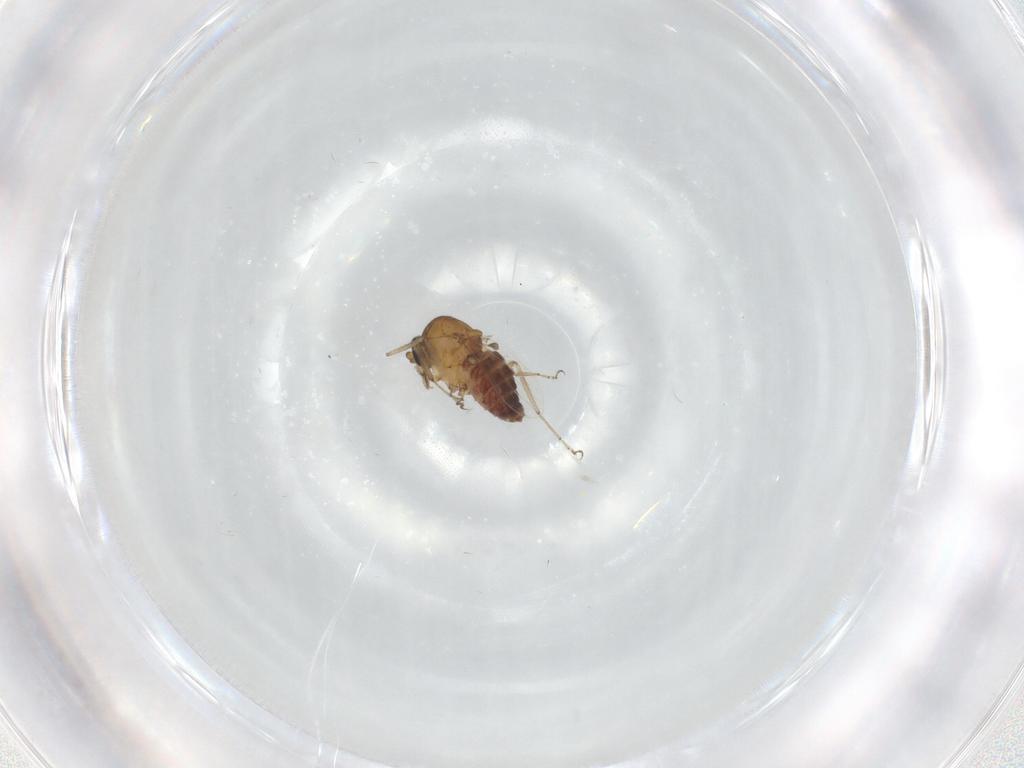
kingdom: Animalia
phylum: Arthropoda
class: Insecta
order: Diptera
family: Ceratopogonidae
